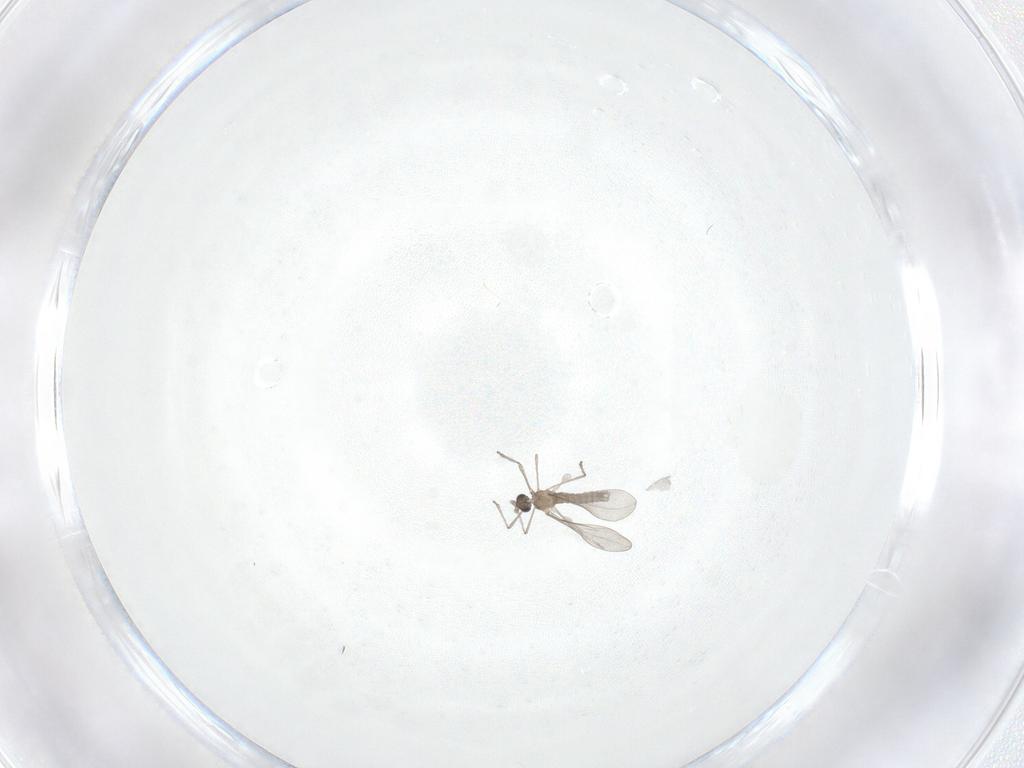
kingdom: Animalia
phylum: Arthropoda
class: Insecta
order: Diptera
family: Cecidomyiidae
